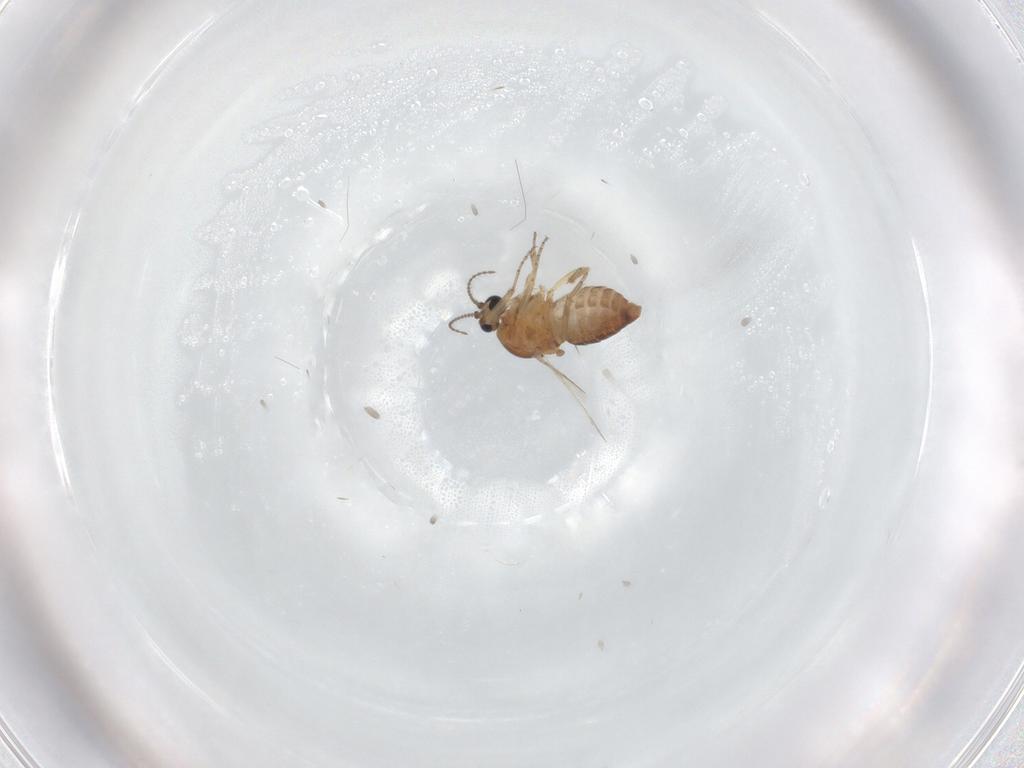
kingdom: Animalia
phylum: Arthropoda
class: Insecta
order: Diptera
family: Ceratopogonidae
